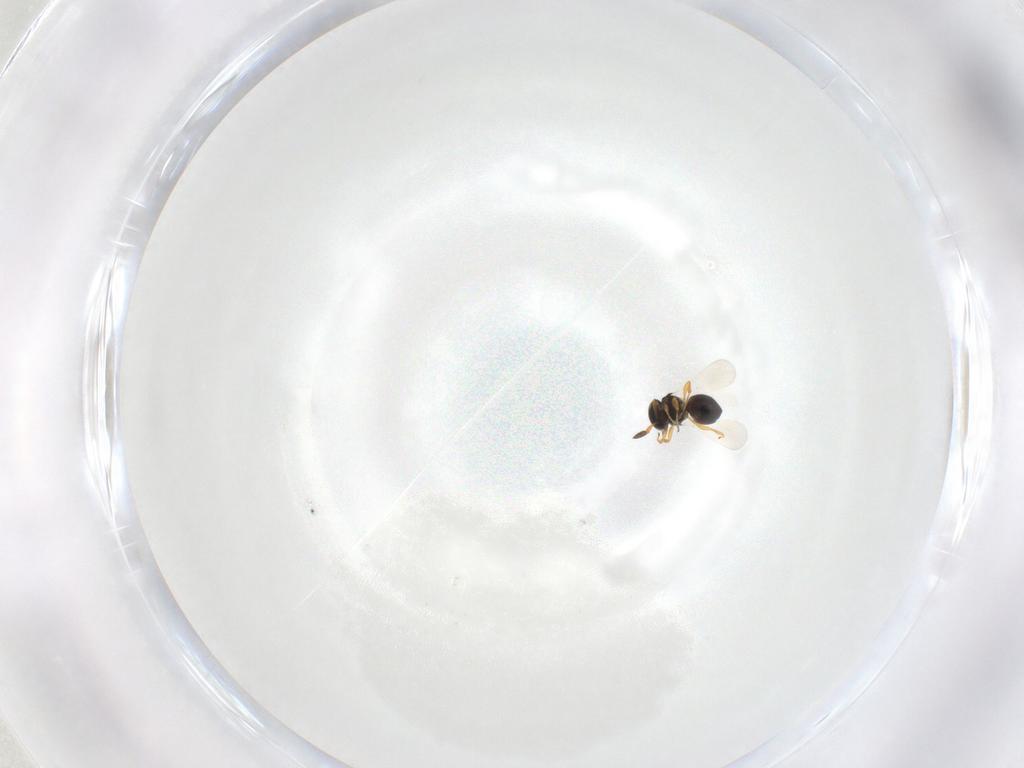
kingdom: Animalia
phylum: Arthropoda
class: Insecta
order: Hymenoptera
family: Platygastridae
